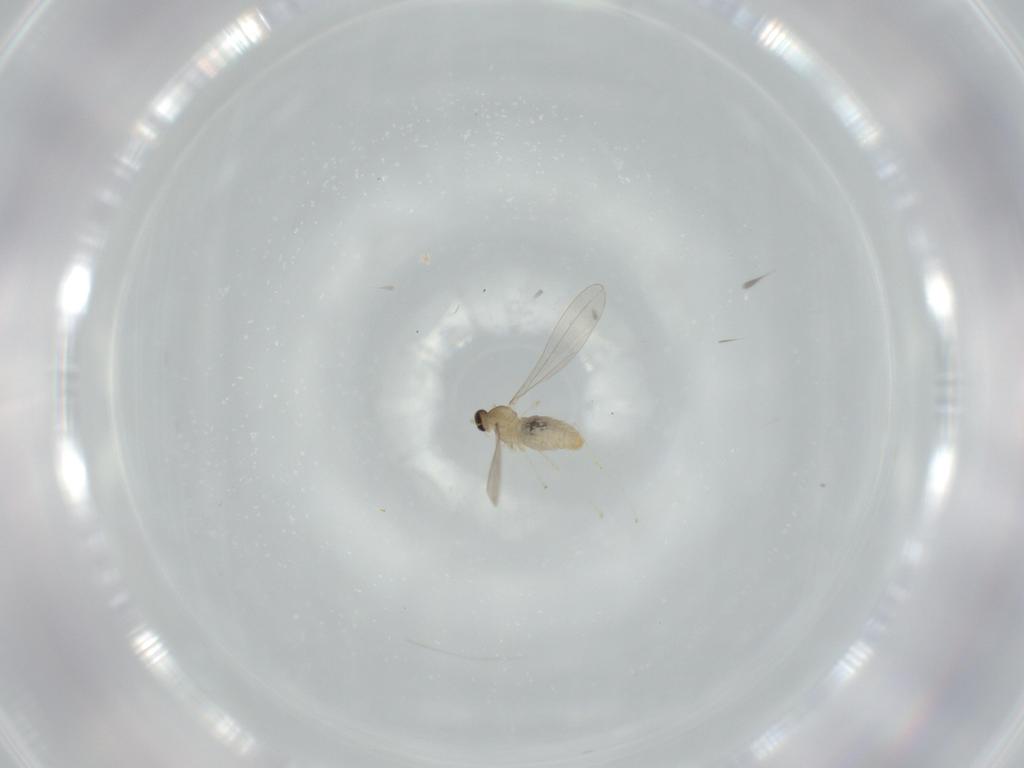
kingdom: Animalia
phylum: Arthropoda
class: Insecta
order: Diptera
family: Cecidomyiidae
